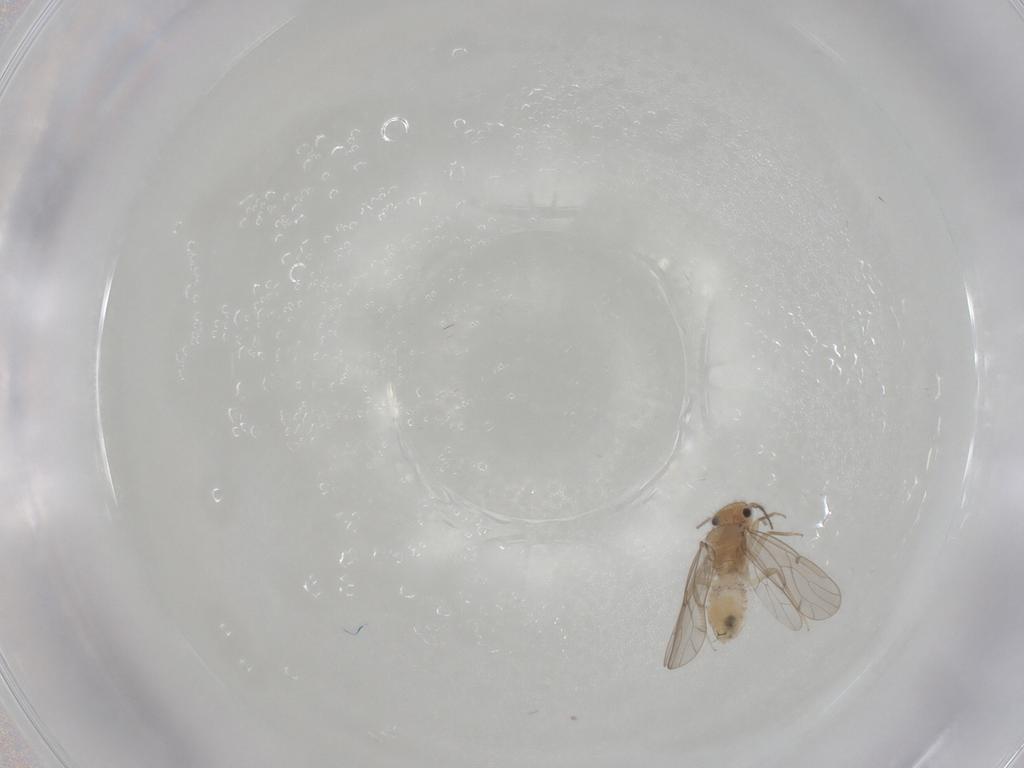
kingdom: Animalia
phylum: Arthropoda
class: Insecta
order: Psocodea
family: Ectopsocidae
